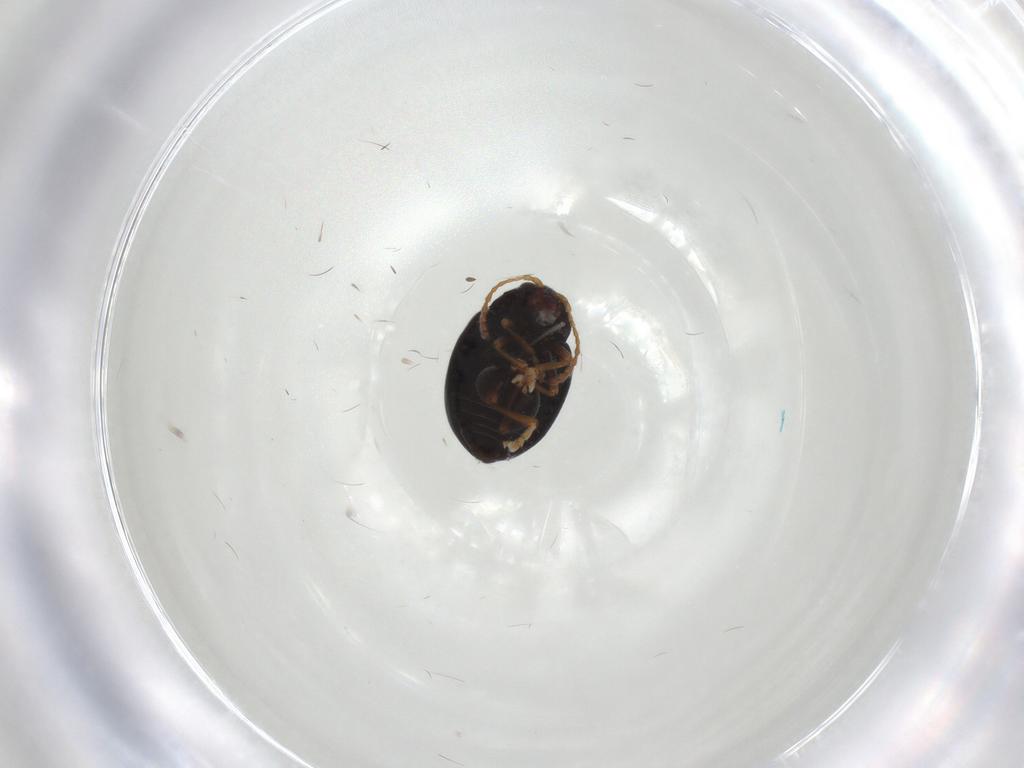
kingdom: Animalia
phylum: Arthropoda
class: Insecta
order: Coleoptera
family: Chrysomelidae
